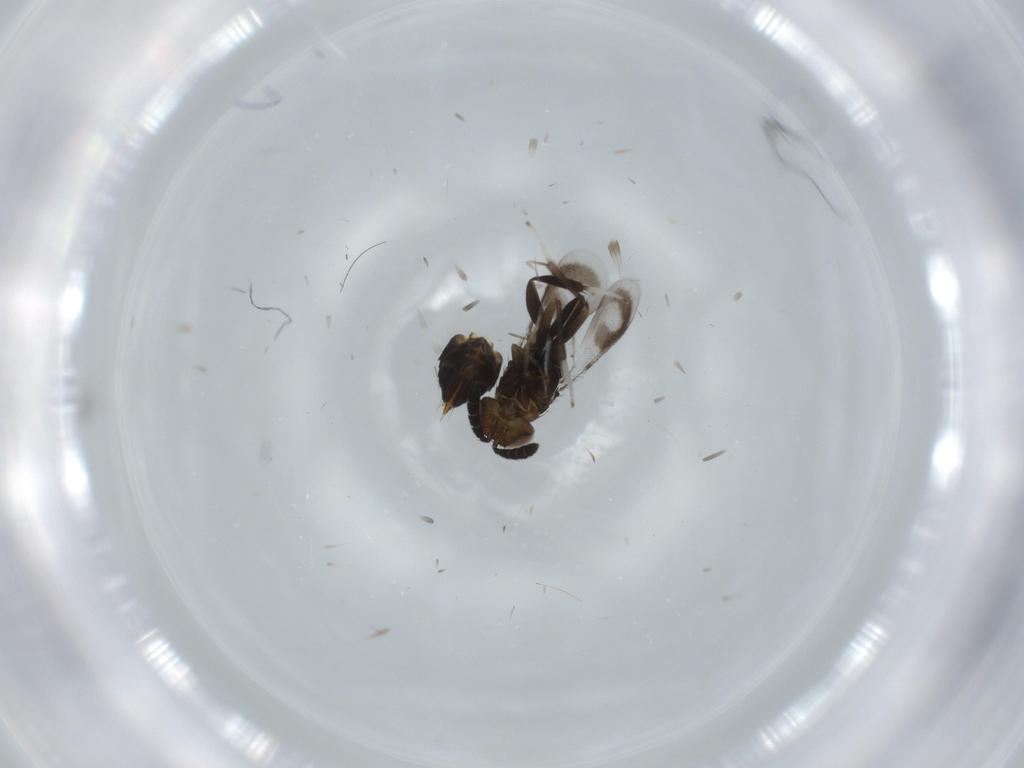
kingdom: Animalia
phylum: Arthropoda
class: Insecta
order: Hymenoptera
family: Aphelinidae
